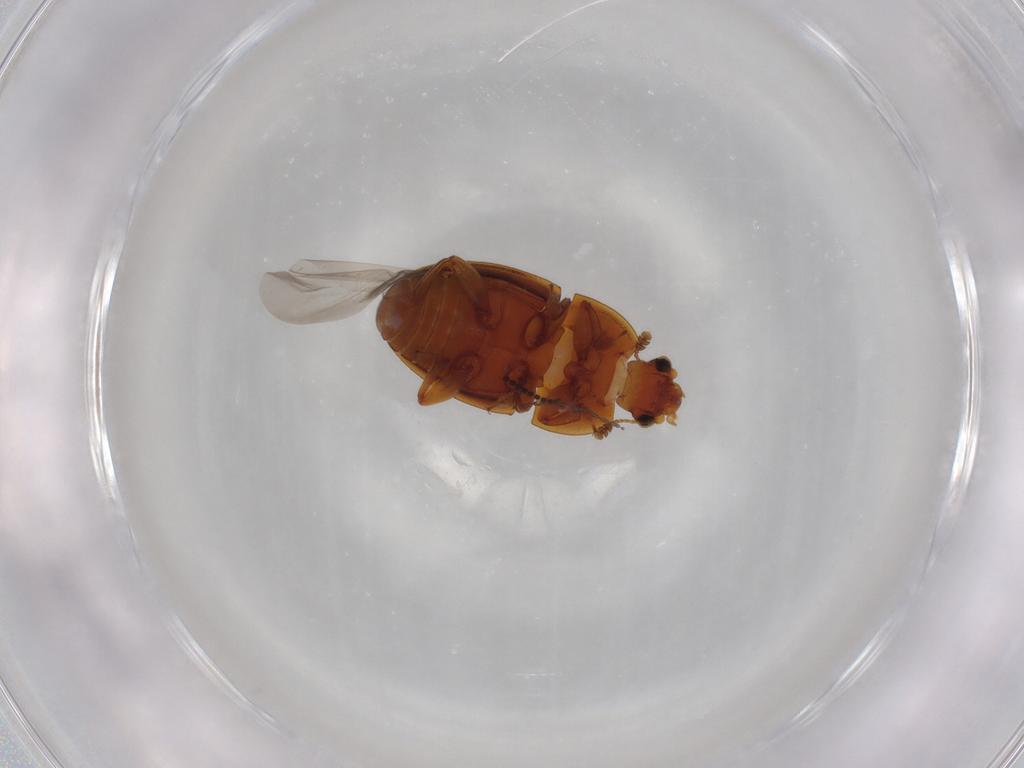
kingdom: Animalia
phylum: Arthropoda
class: Insecta
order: Coleoptera
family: Nitidulidae
